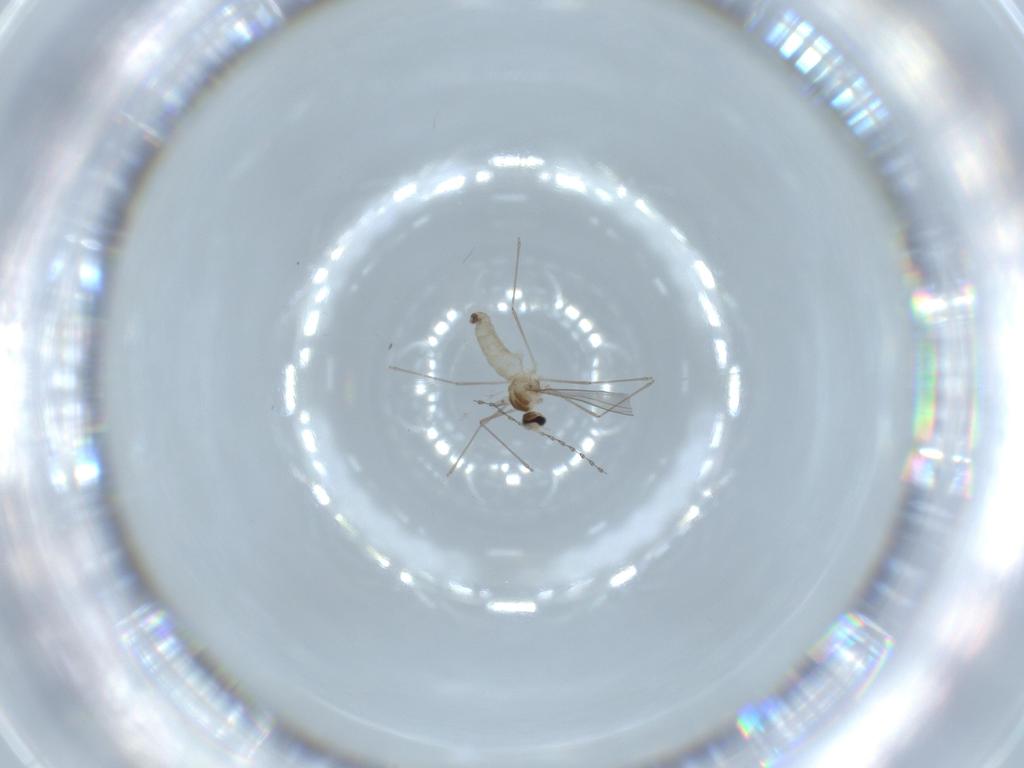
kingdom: Animalia
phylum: Arthropoda
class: Insecta
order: Diptera
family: Cecidomyiidae
